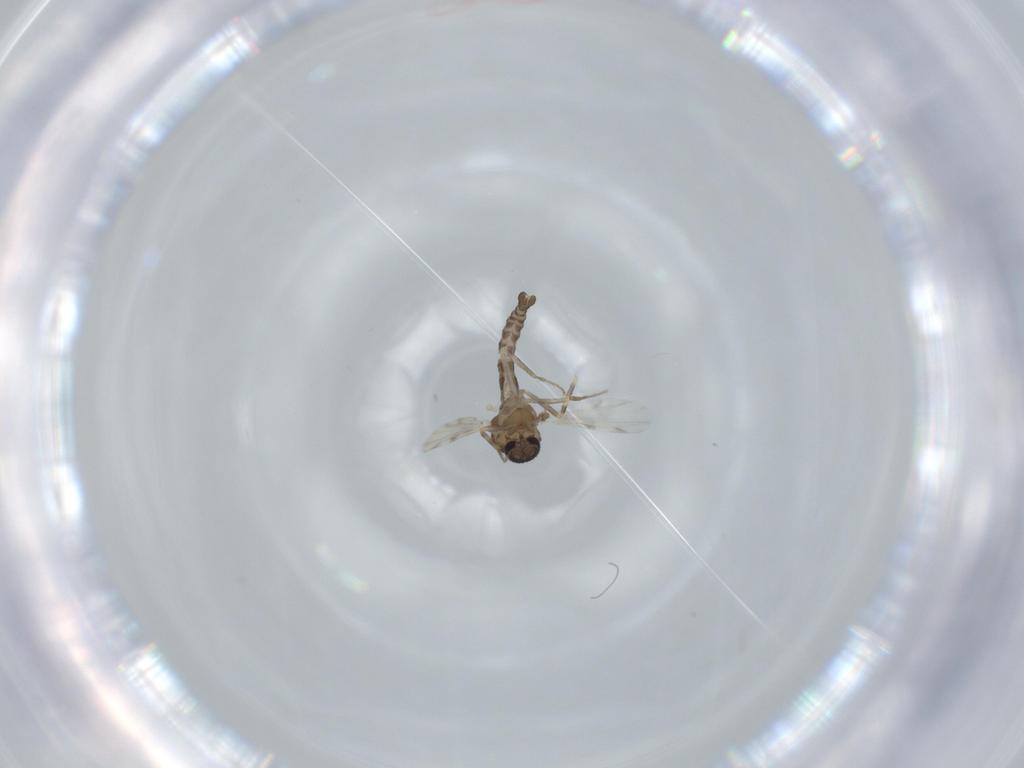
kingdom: Animalia
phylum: Arthropoda
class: Insecta
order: Diptera
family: Ceratopogonidae
